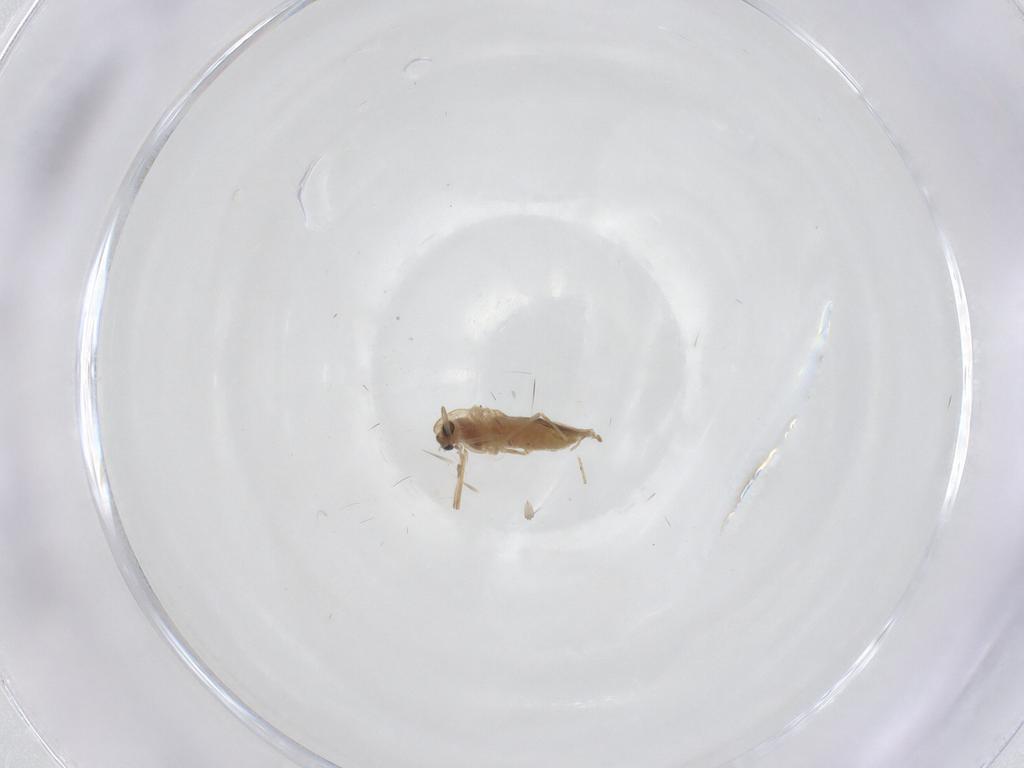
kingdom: Animalia
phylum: Arthropoda
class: Insecta
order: Diptera
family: Chironomidae
